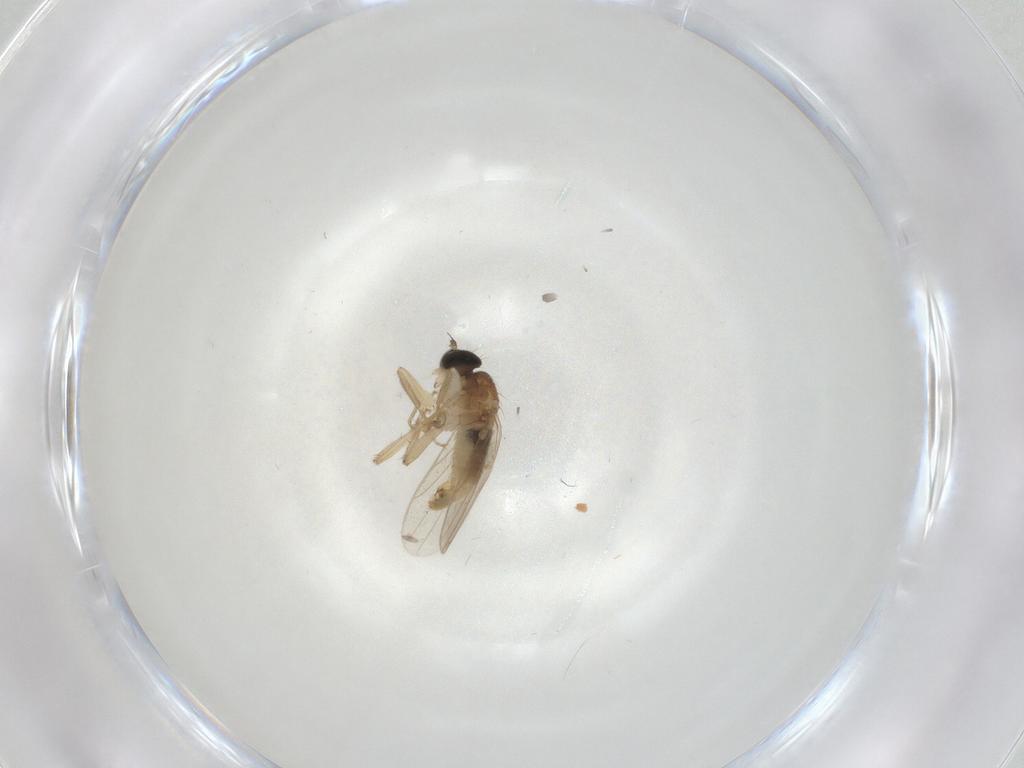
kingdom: Animalia
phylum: Arthropoda
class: Insecta
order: Diptera
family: Hybotidae
